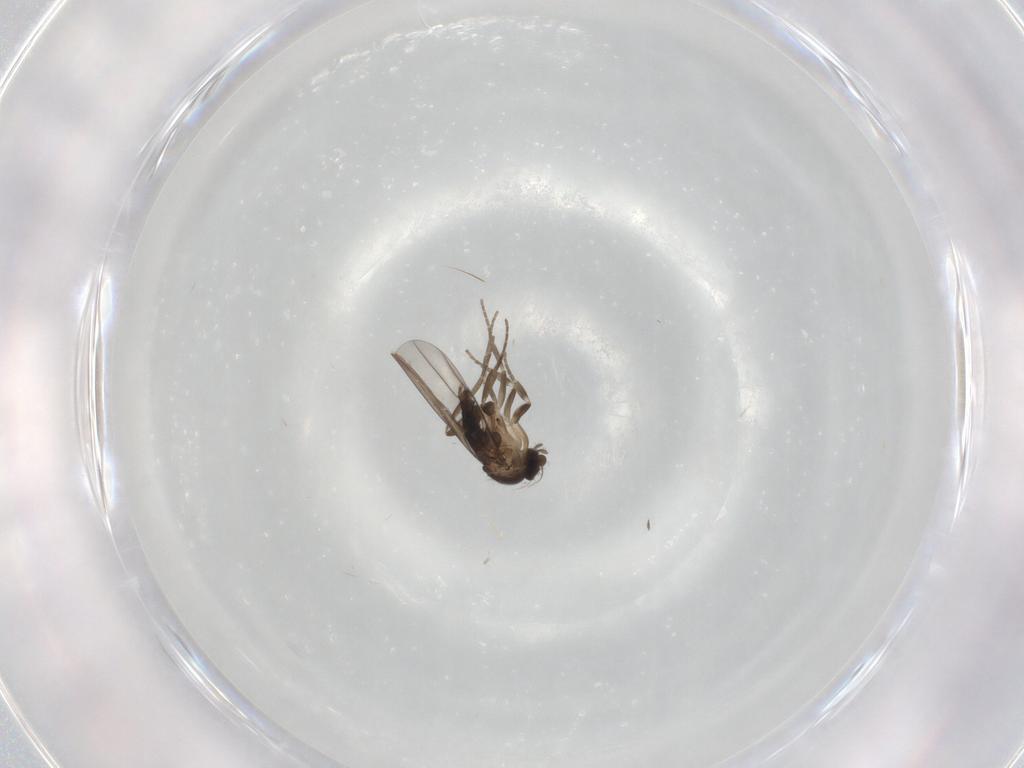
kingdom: Animalia
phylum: Arthropoda
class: Insecta
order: Diptera
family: Phoridae
